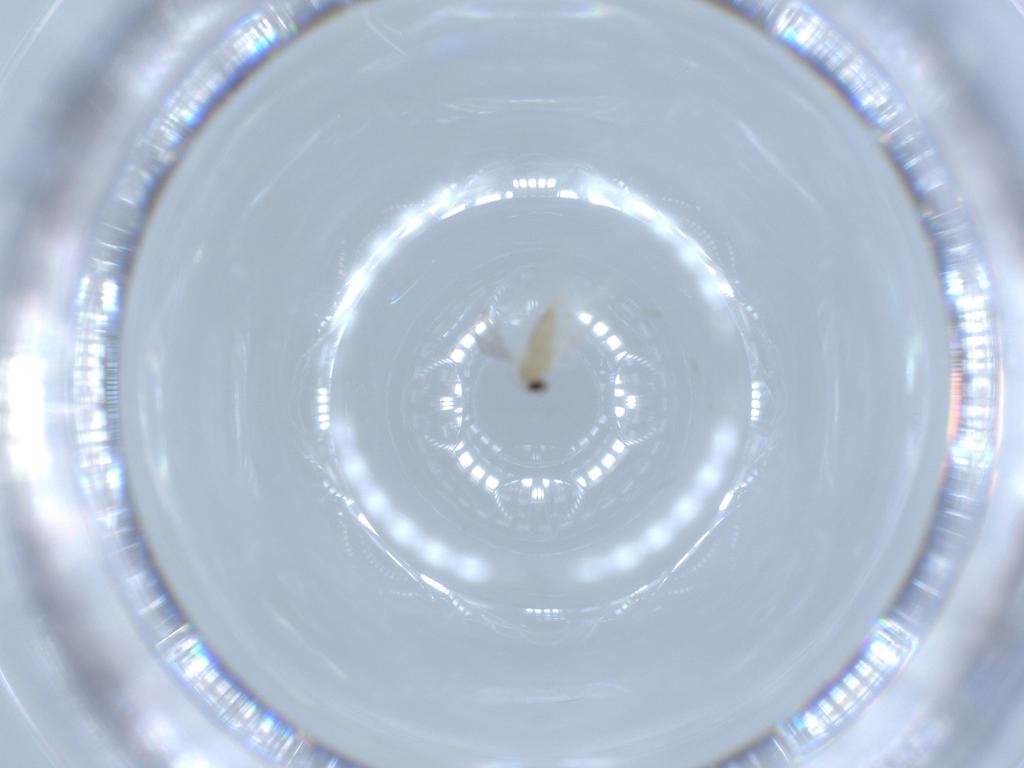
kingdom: Animalia
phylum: Arthropoda
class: Insecta
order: Diptera
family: Cecidomyiidae
